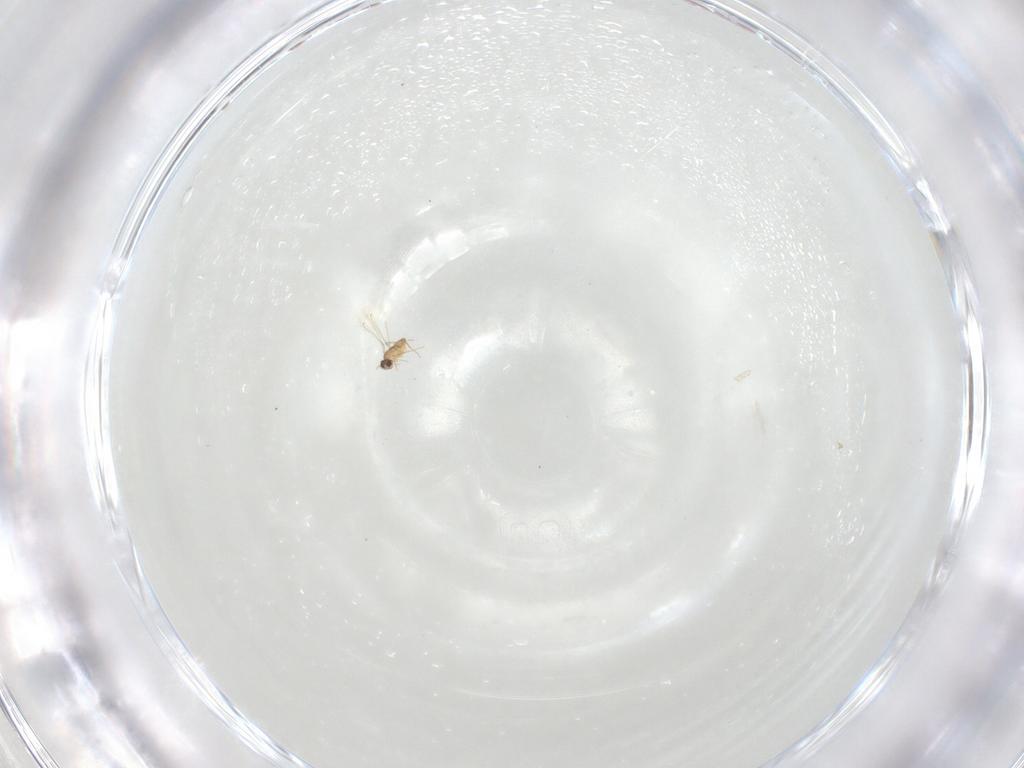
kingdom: Animalia
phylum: Arthropoda
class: Insecta
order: Hymenoptera
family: Mymaridae
